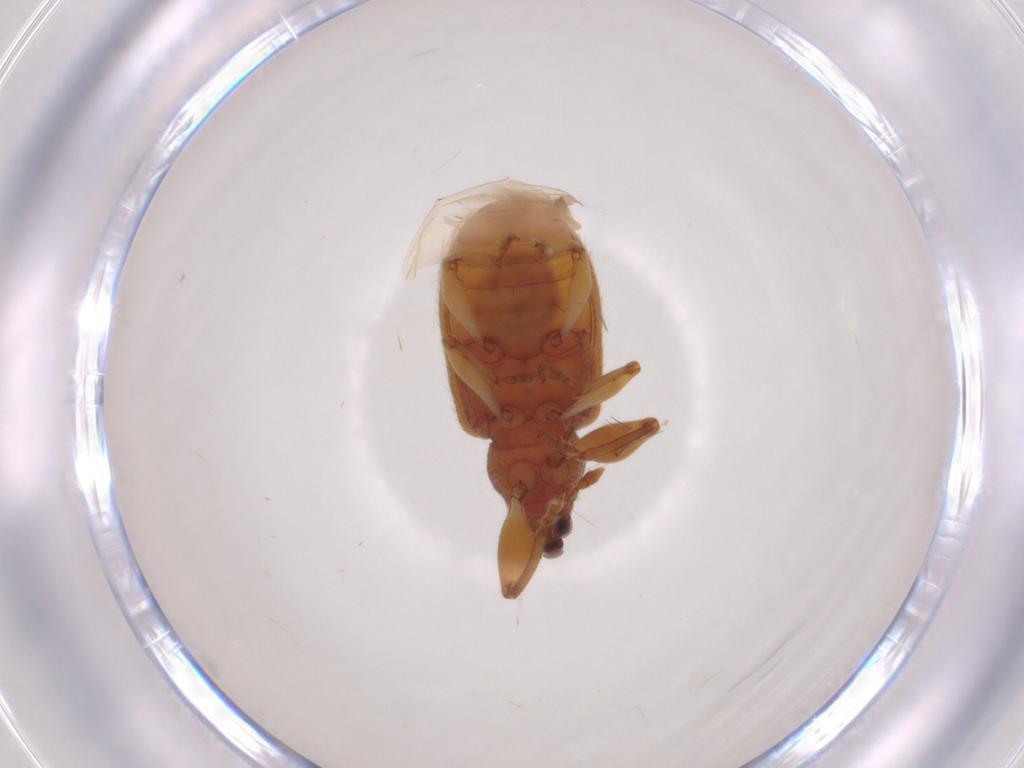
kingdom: Animalia
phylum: Arthropoda
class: Insecta
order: Coleoptera
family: Curculionidae
